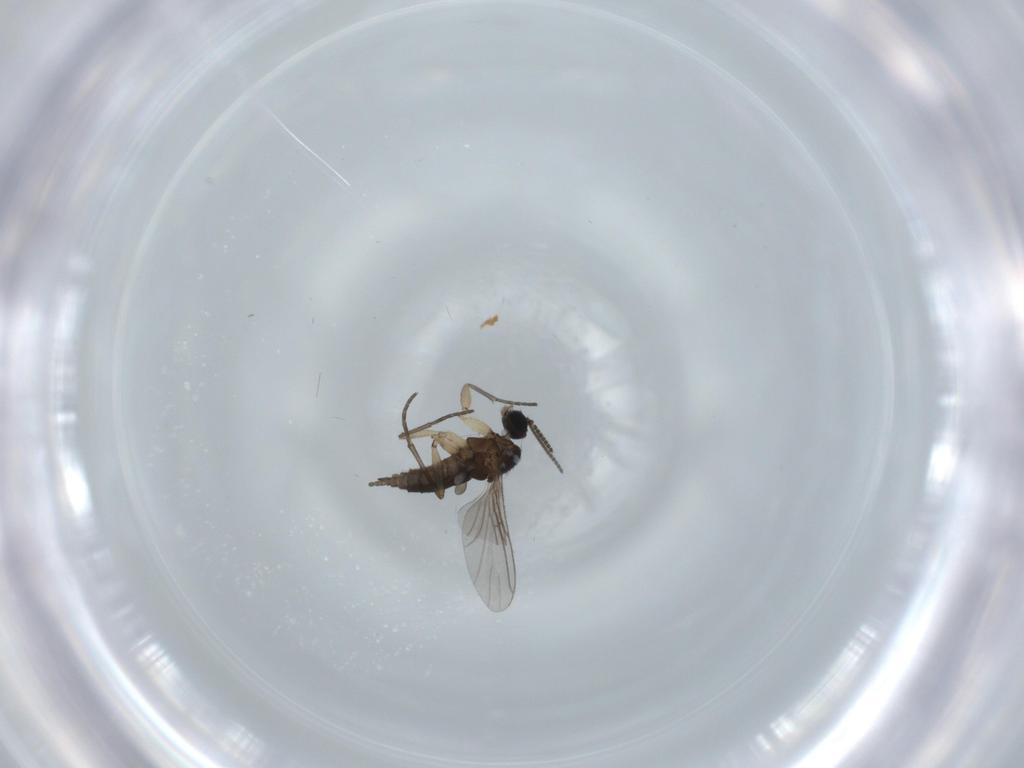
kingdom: Animalia
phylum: Arthropoda
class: Insecta
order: Diptera
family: Sciaridae
